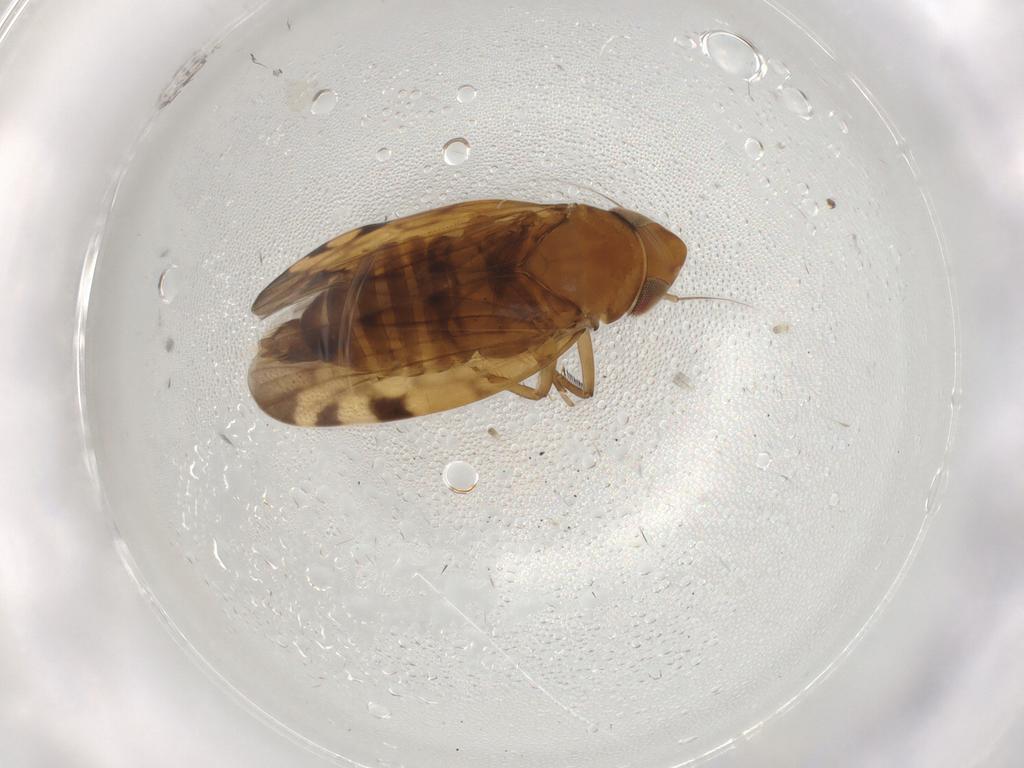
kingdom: Animalia
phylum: Arthropoda
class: Insecta
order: Hemiptera
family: Cicadellidae
